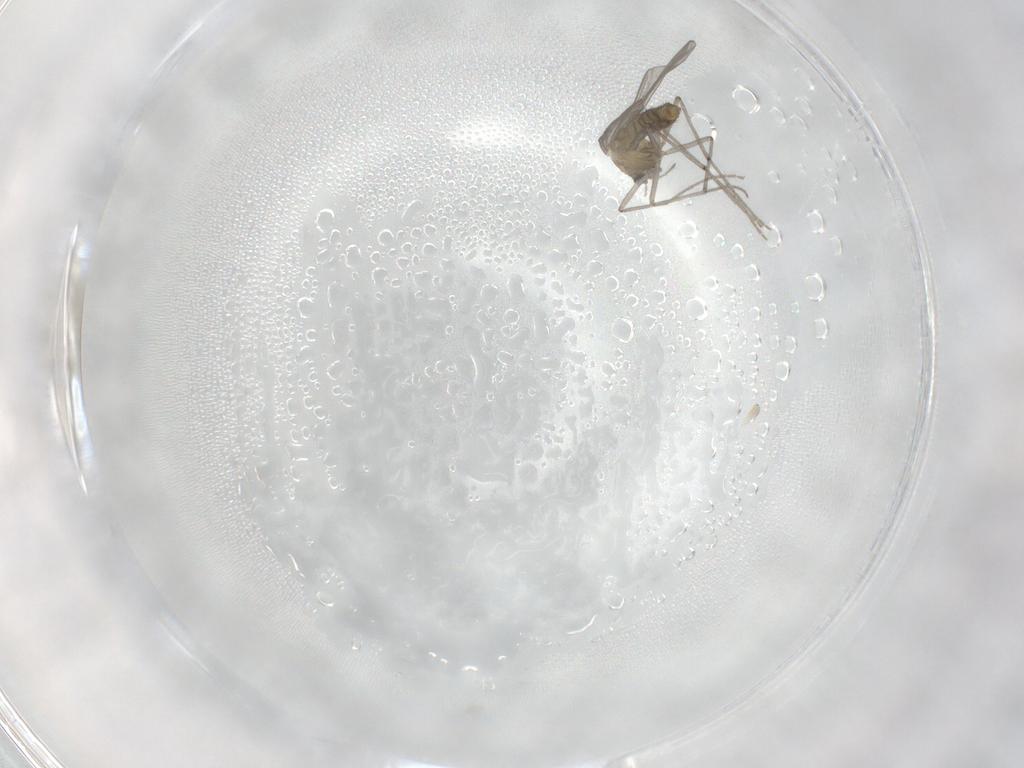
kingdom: Animalia
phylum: Arthropoda
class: Insecta
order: Diptera
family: Chironomidae
